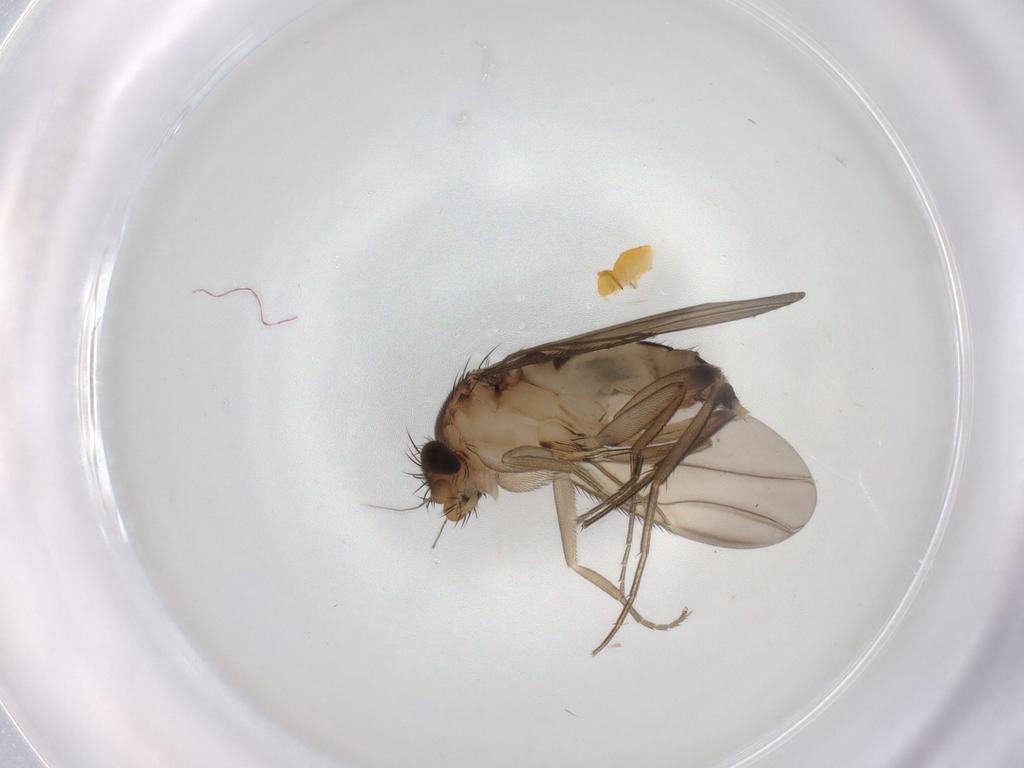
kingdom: Animalia
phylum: Arthropoda
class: Insecta
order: Diptera
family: Phoridae
